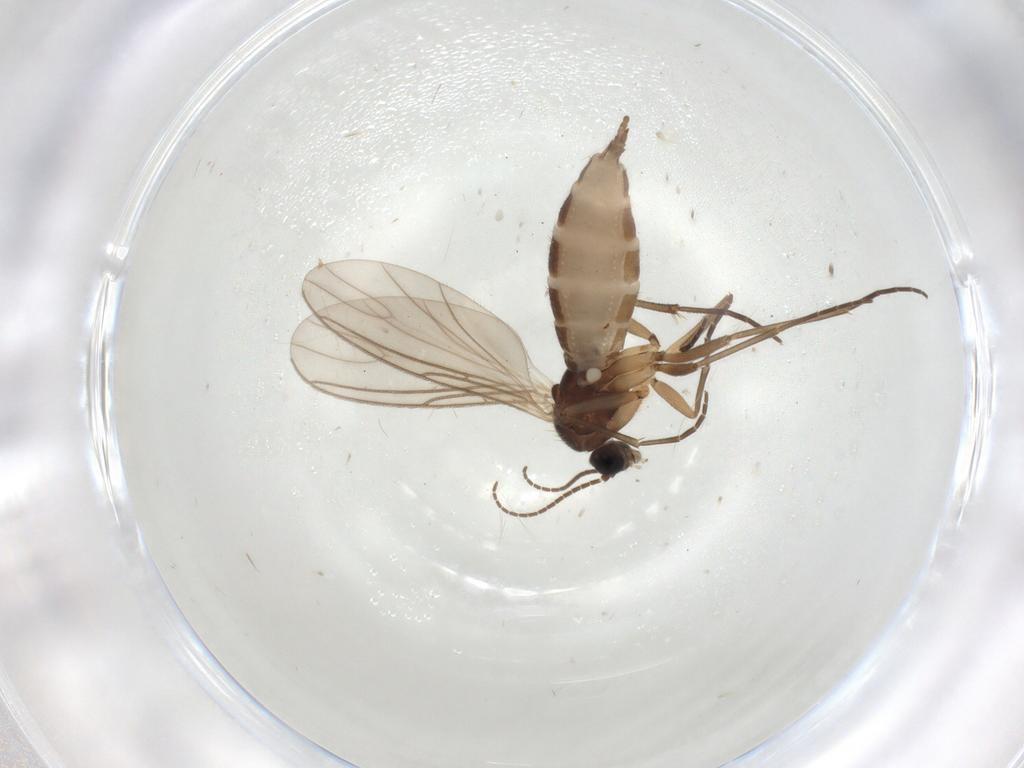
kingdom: Animalia
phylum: Arthropoda
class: Insecta
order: Diptera
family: Sciaridae
